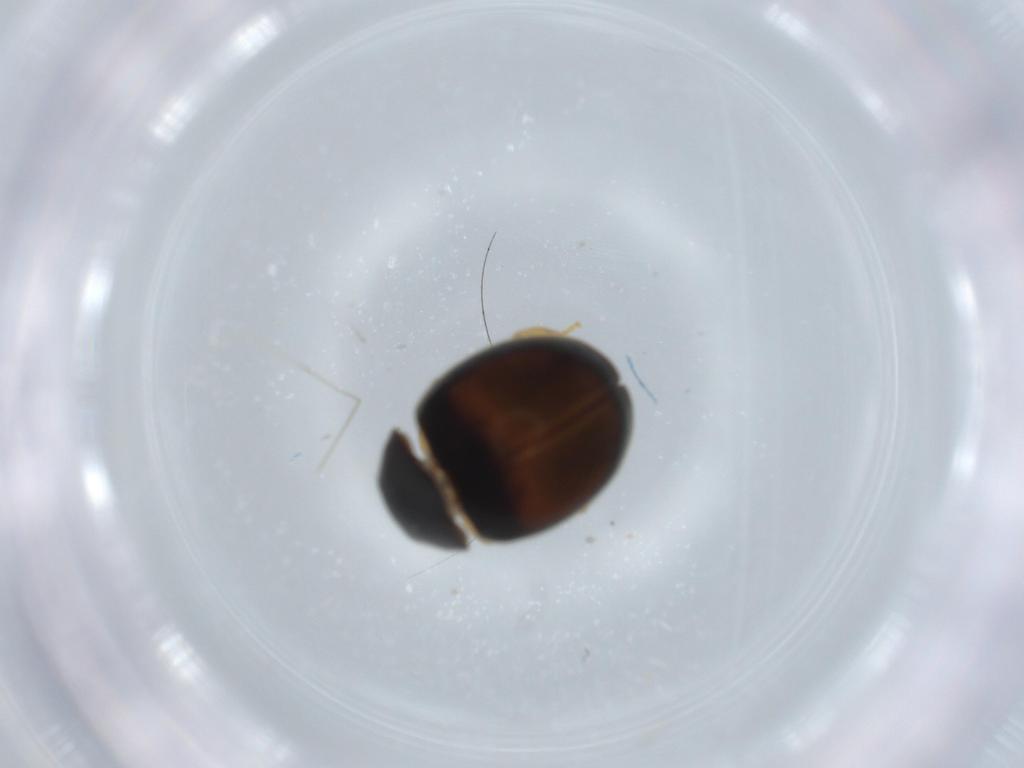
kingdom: Animalia
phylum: Arthropoda
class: Insecta
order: Coleoptera
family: Coccinellidae
